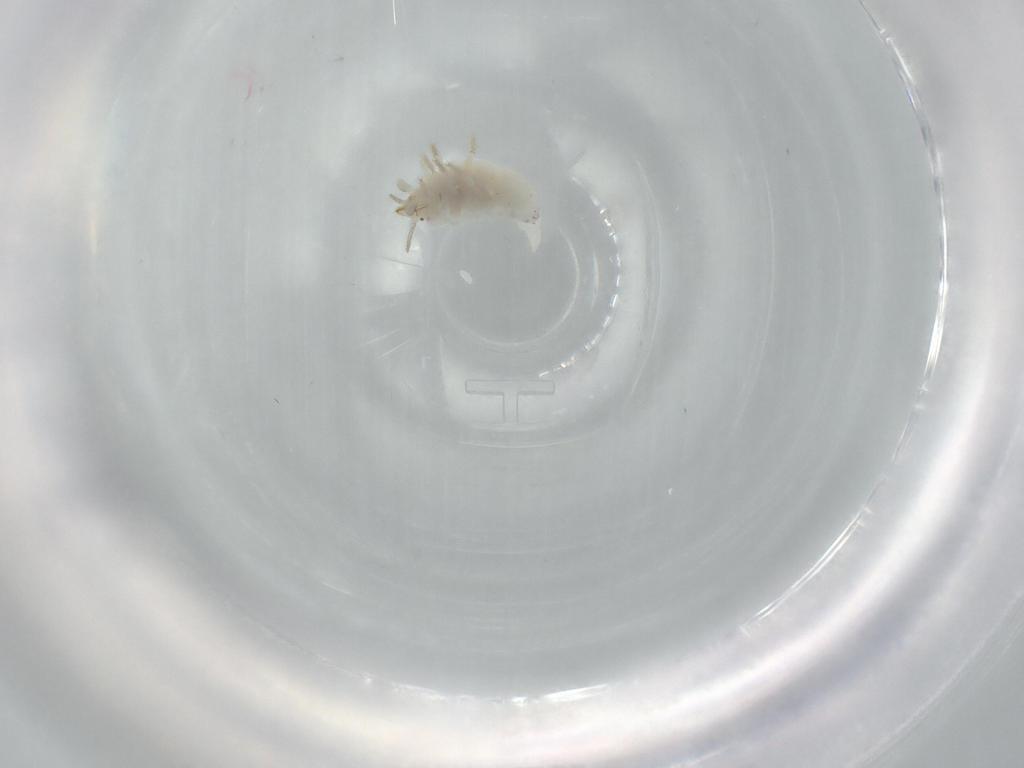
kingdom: Animalia
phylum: Arthropoda
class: Insecta
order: Neuroptera
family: Coniopterygidae
